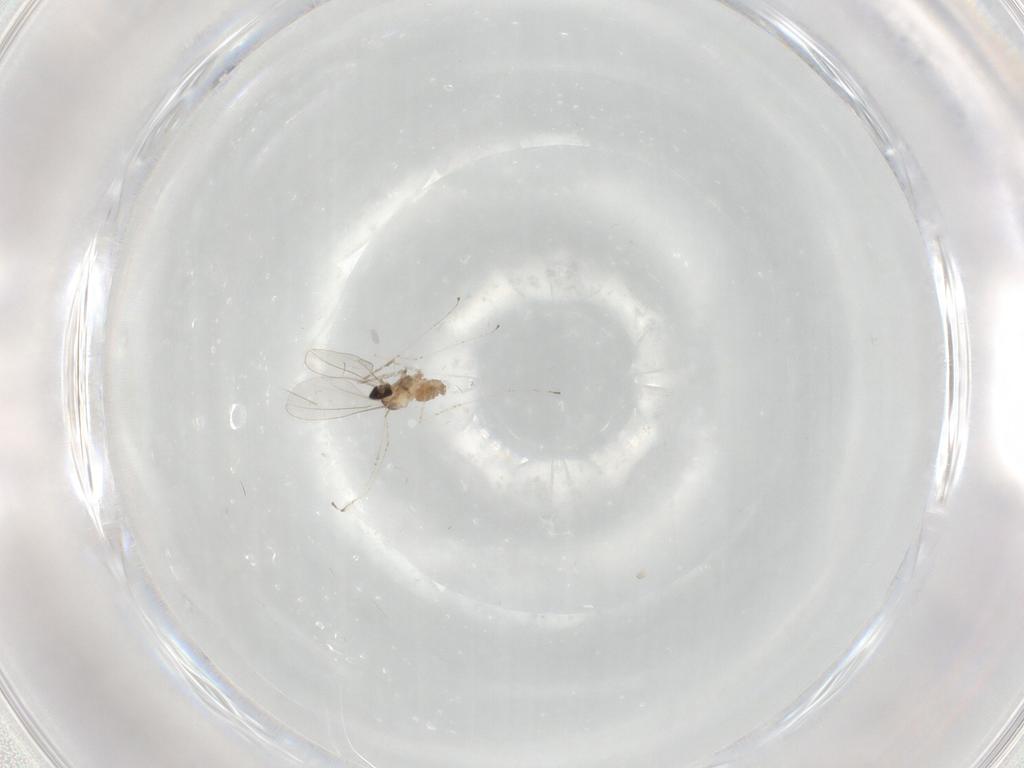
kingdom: Animalia
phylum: Arthropoda
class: Insecta
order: Diptera
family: Cecidomyiidae
